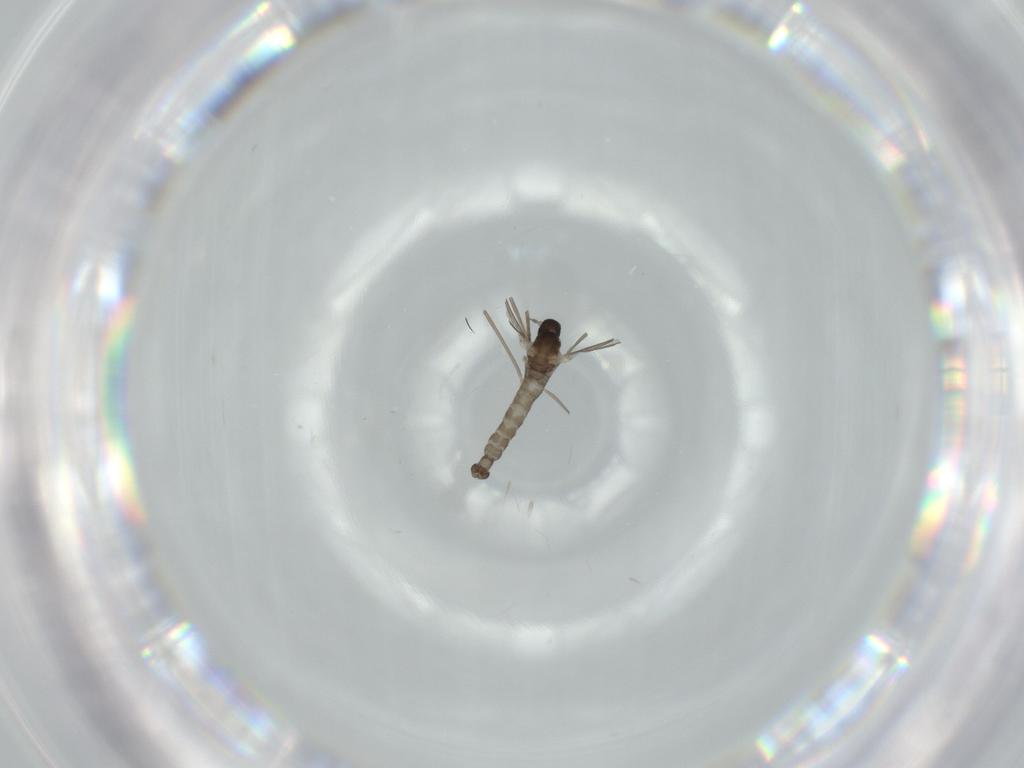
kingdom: Animalia
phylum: Arthropoda
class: Insecta
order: Diptera
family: Cecidomyiidae
